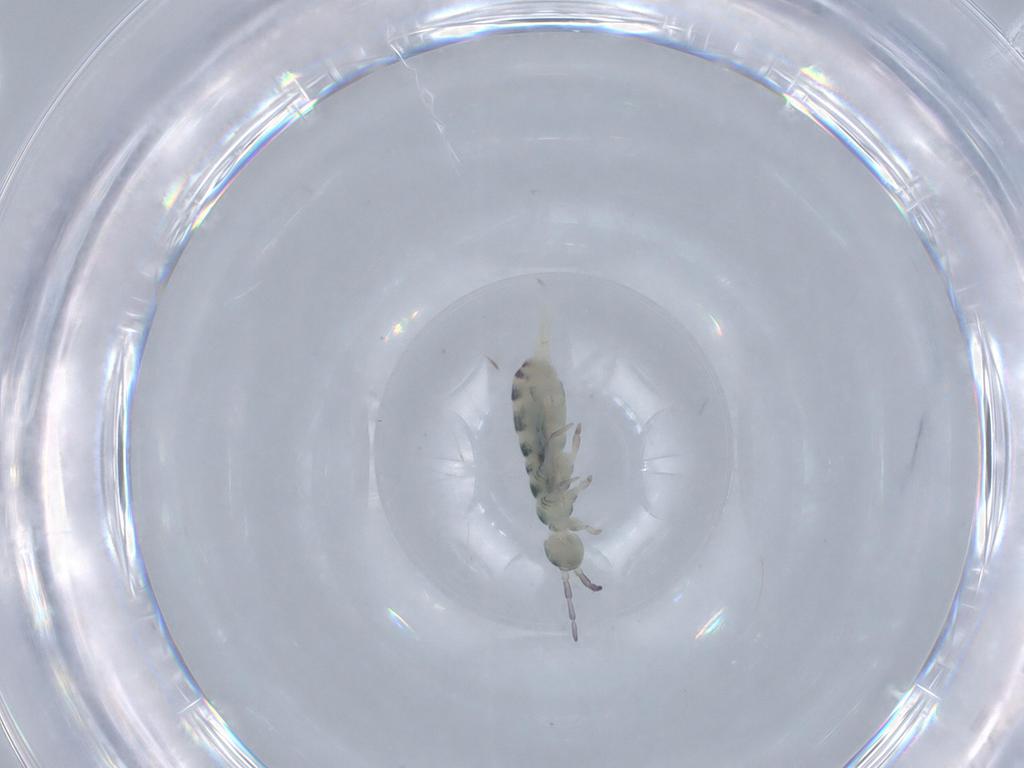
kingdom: Animalia
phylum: Arthropoda
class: Collembola
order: Entomobryomorpha
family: Isotomidae
